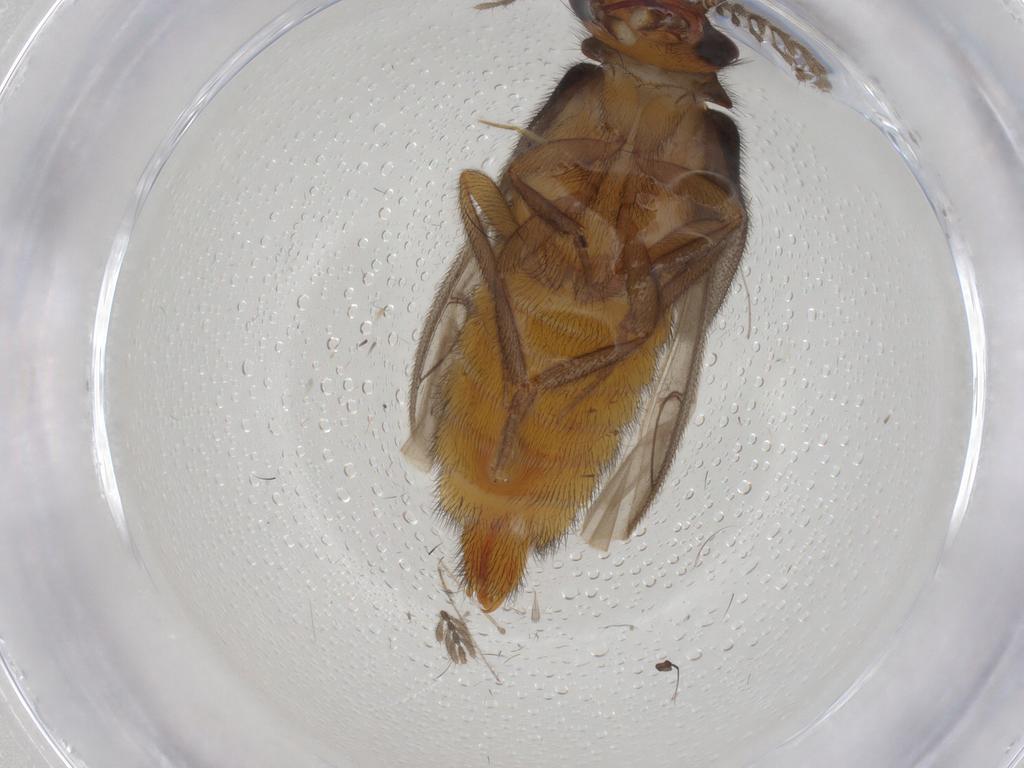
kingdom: Animalia
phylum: Arthropoda
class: Insecta
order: Diptera
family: Cecidomyiidae
